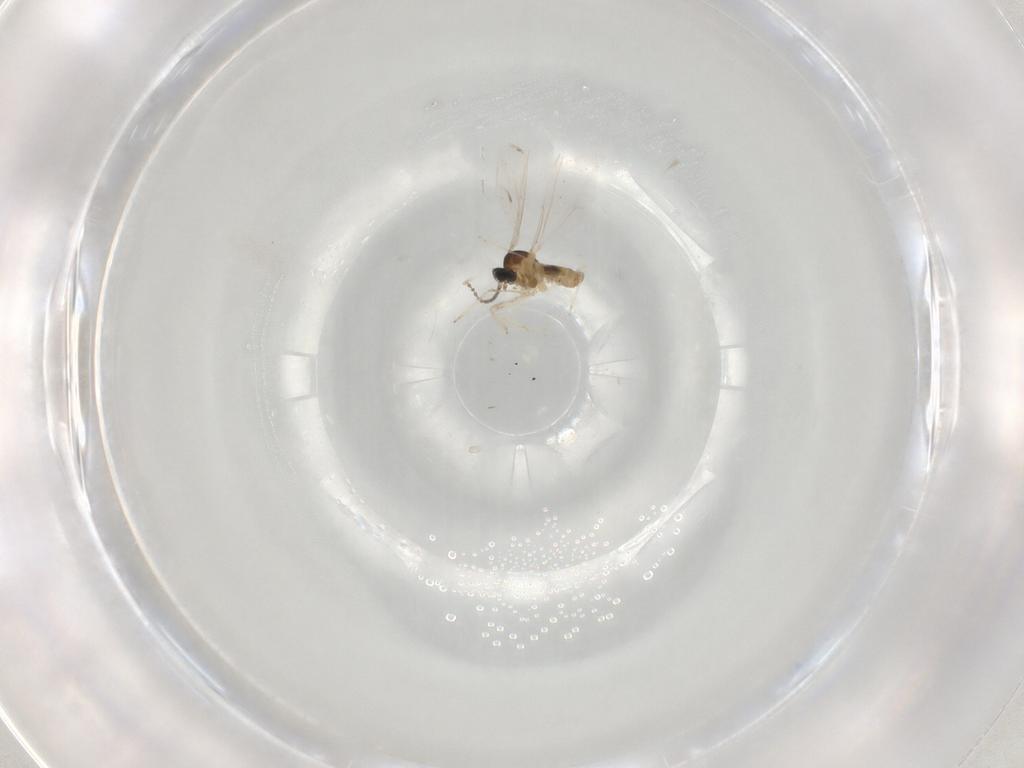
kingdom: Animalia
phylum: Arthropoda
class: Insecta
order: Diptera
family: Cecidomyiidae
